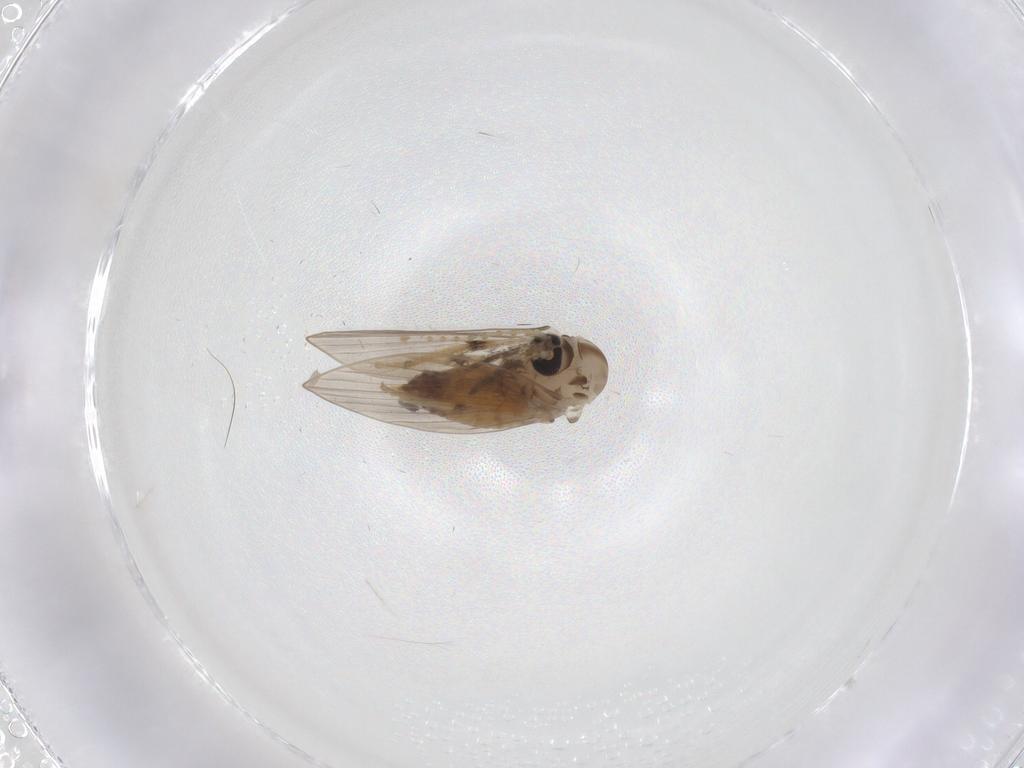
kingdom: Animalia
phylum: Arthropoda
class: Insecta
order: Diptera
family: Psychodidae
